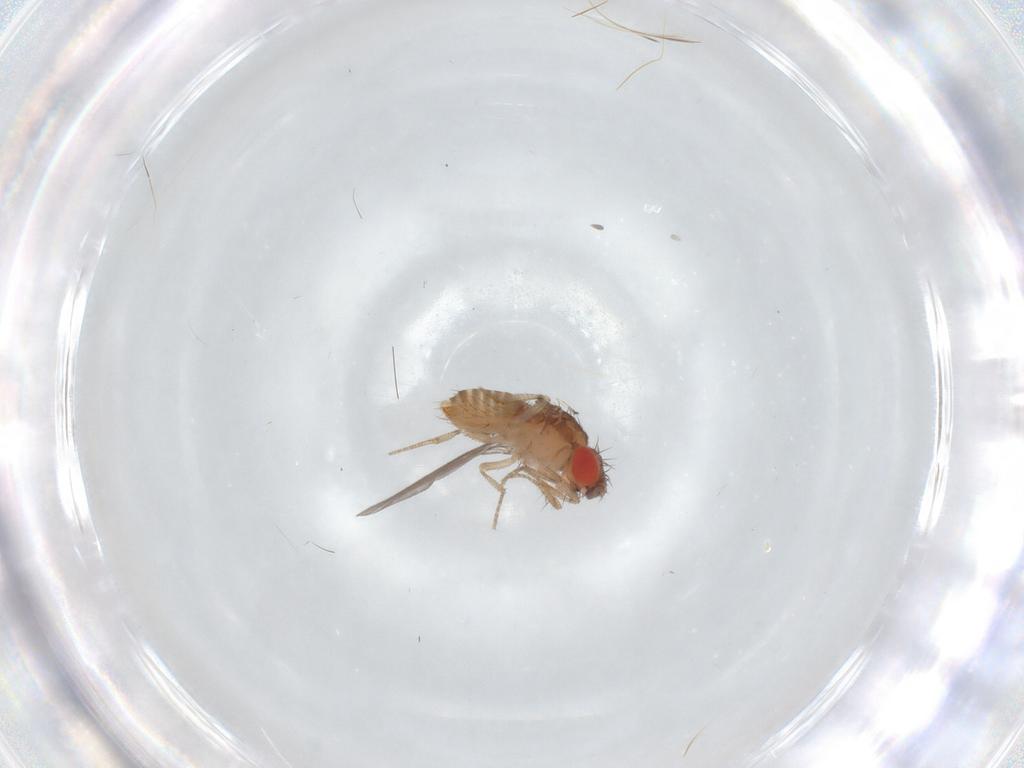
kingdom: Animalia
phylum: Arthropoda
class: Insecta
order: Diptera
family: Drosophilidae
